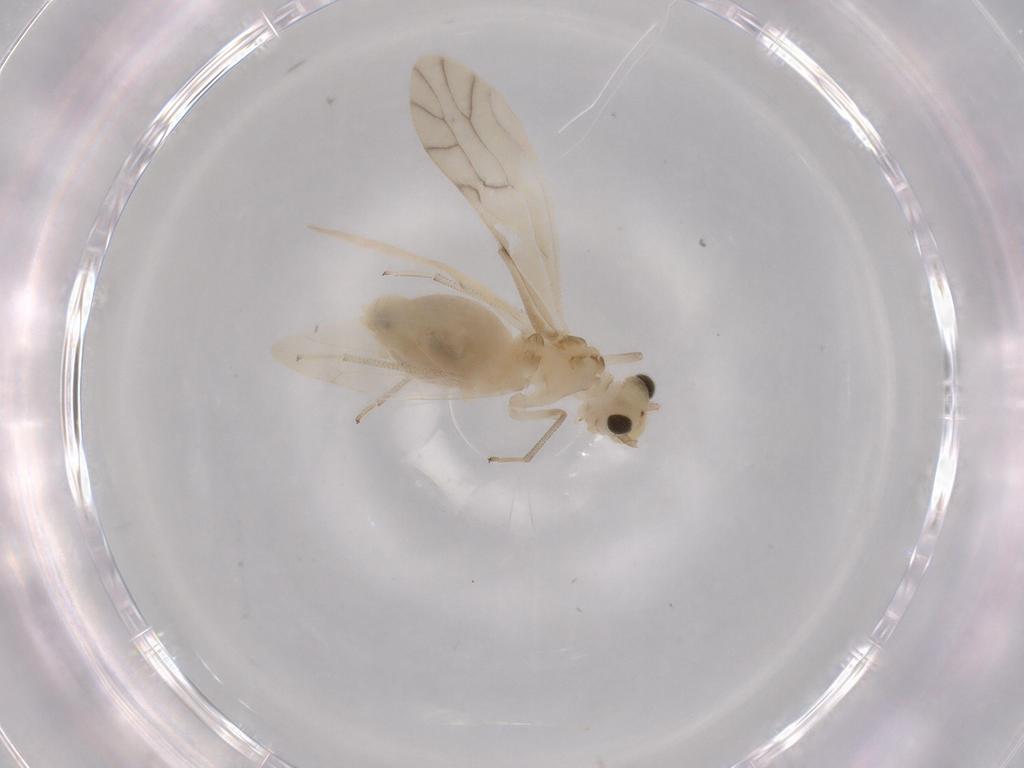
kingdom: Animalia
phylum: Arthropoda
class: Insecta
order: Psocodea
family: Caeciliusidae
